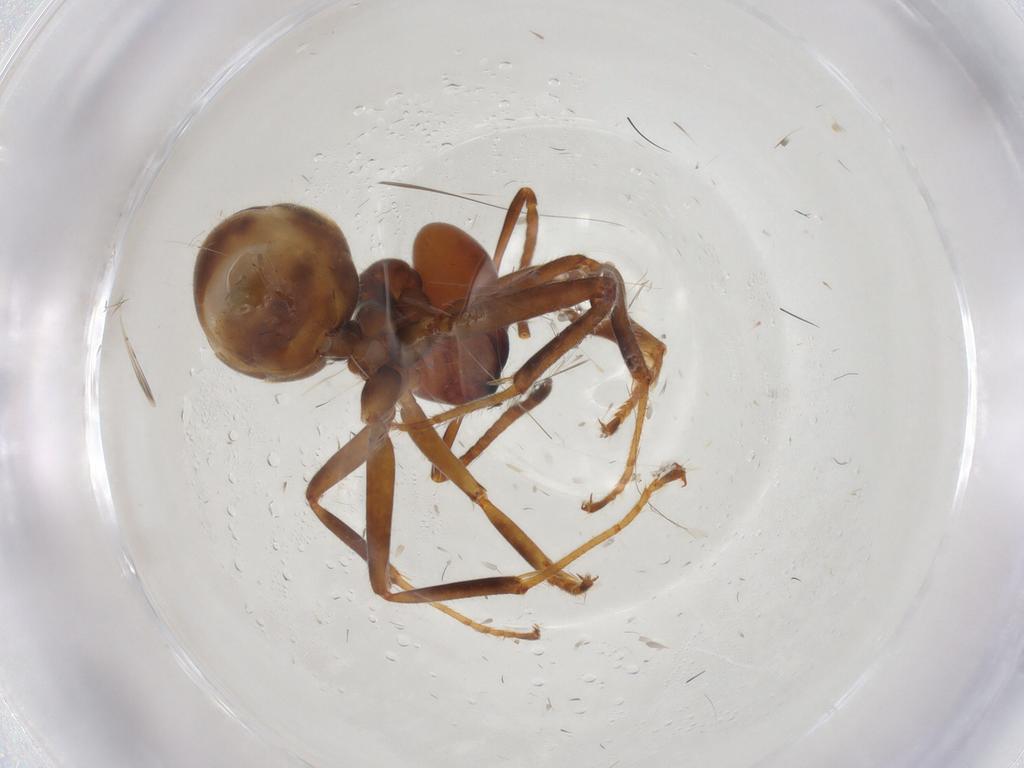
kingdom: Animalia
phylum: Arthropoda
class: Insecta
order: Hymenoptera
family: Formicidae
